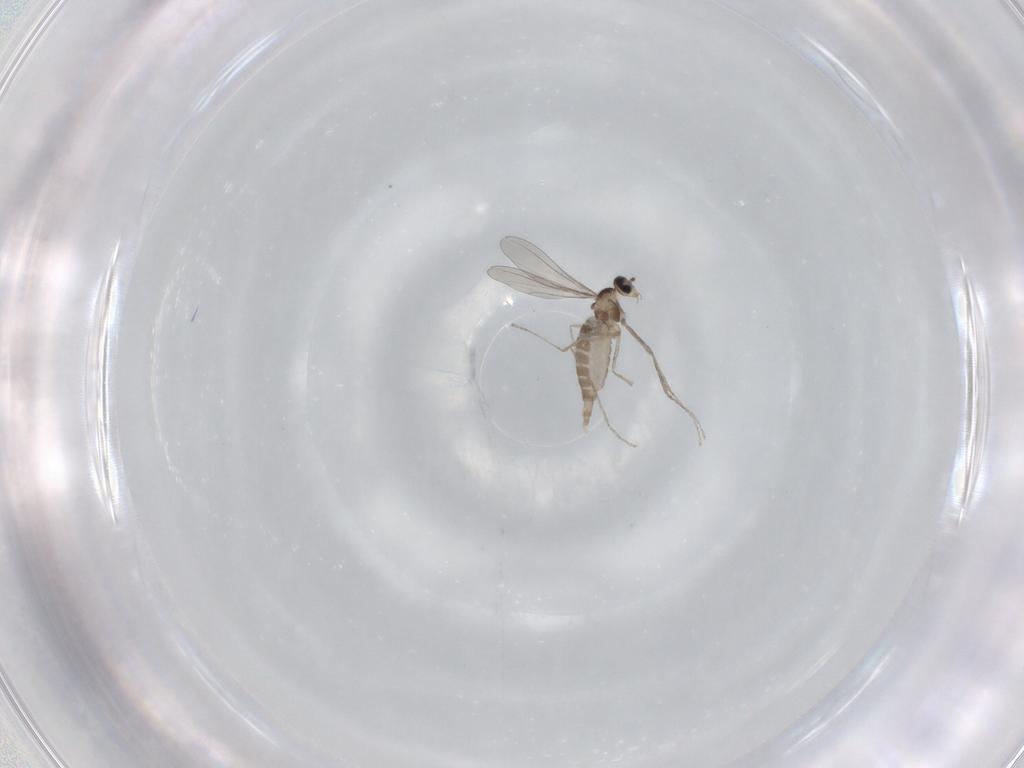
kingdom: Animalia
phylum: Arthropoda
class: Insecta
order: Diptera
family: Cecidomyiidae
